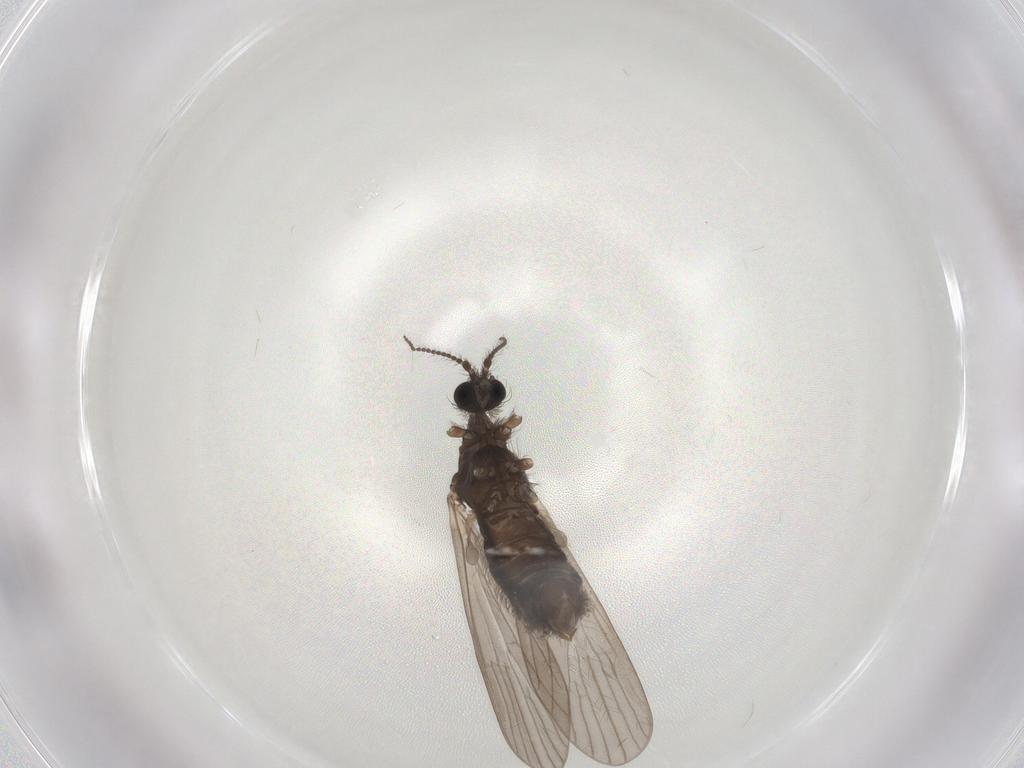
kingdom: Animalia
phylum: Arthropoda
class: Insecta
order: Diptera
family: Limoniidae
